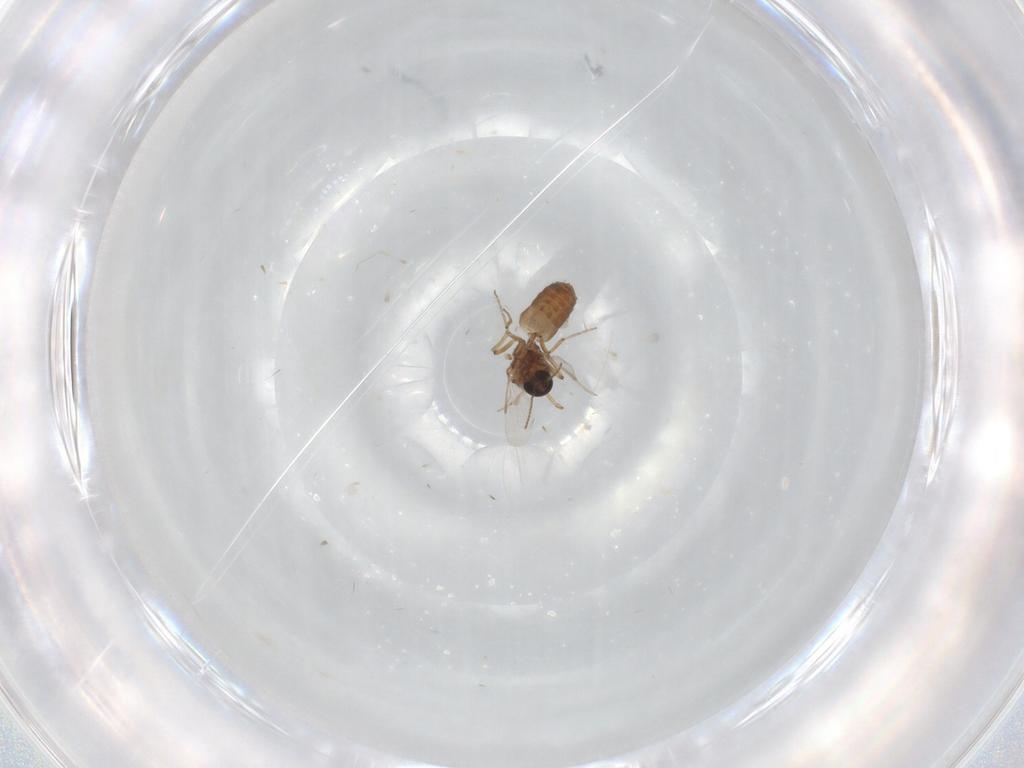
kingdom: Animalia
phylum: Arthropoda
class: Insecta
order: Diptera
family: Ceratopogonidae
